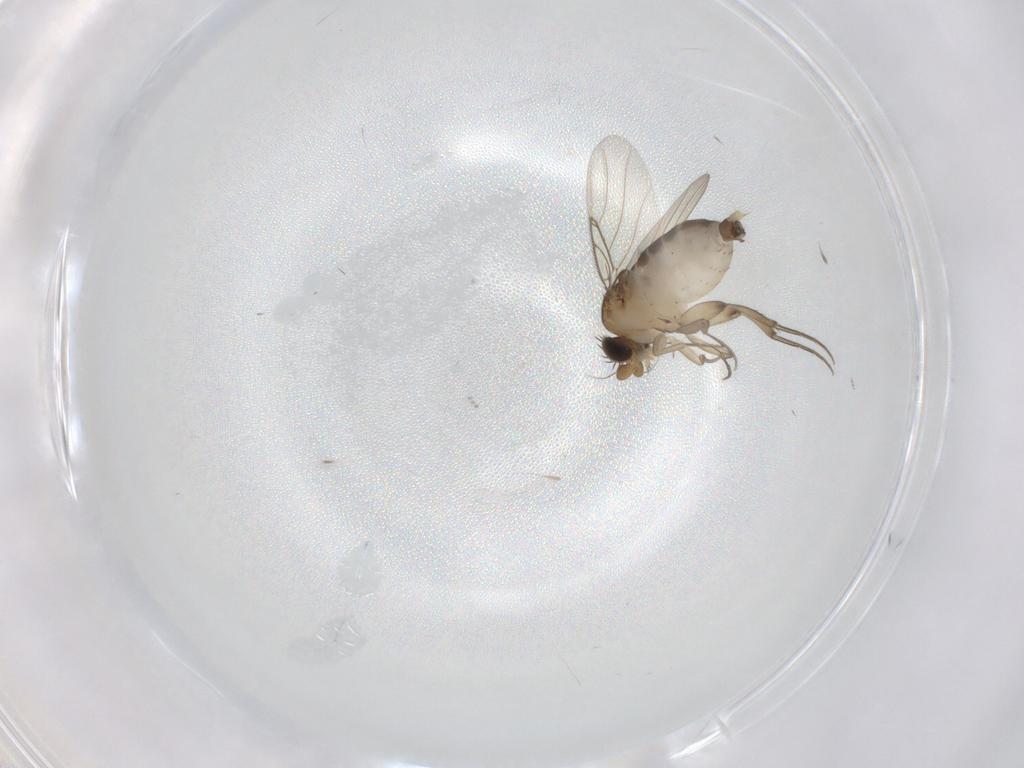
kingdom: Animalia
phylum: Arthropoda
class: Insecta
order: Diptera
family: Phoridae
